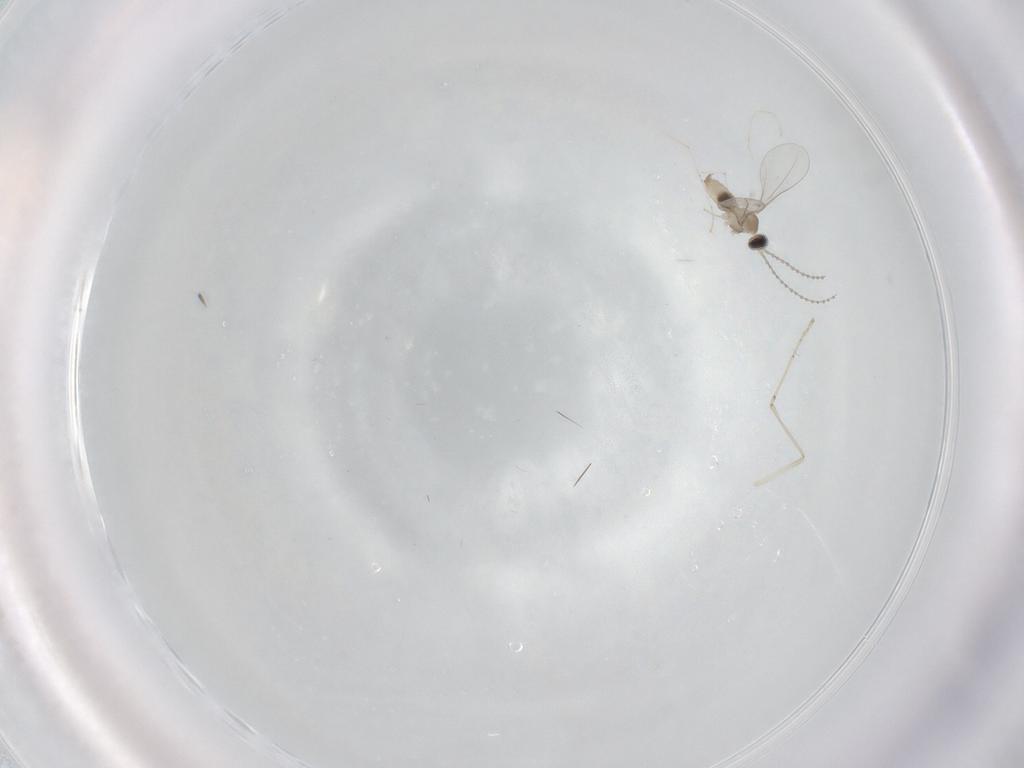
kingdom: Animalia
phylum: Arthropoda
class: Insecta
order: Diptera
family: Cecidomyiidae
